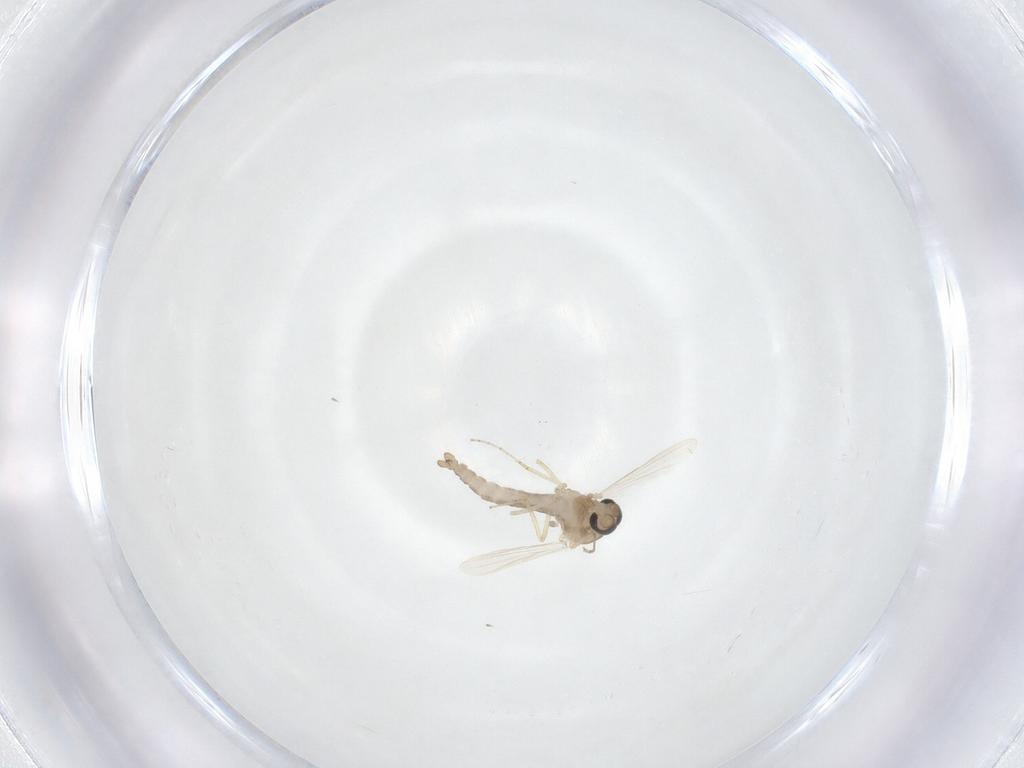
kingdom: Animalia
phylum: Arthropoda
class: Insecta
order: Diptera
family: Ceratopogonidae
